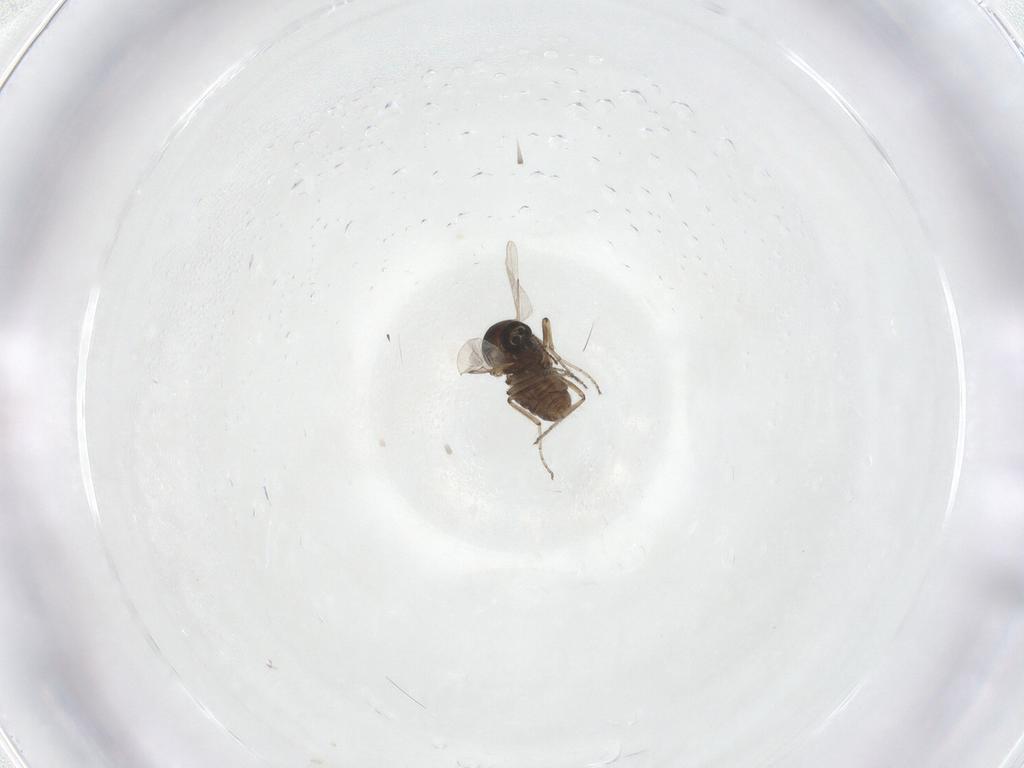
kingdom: Animalia
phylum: Arthropoda
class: Insecta
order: Diptera
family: Ceratopogonidae
